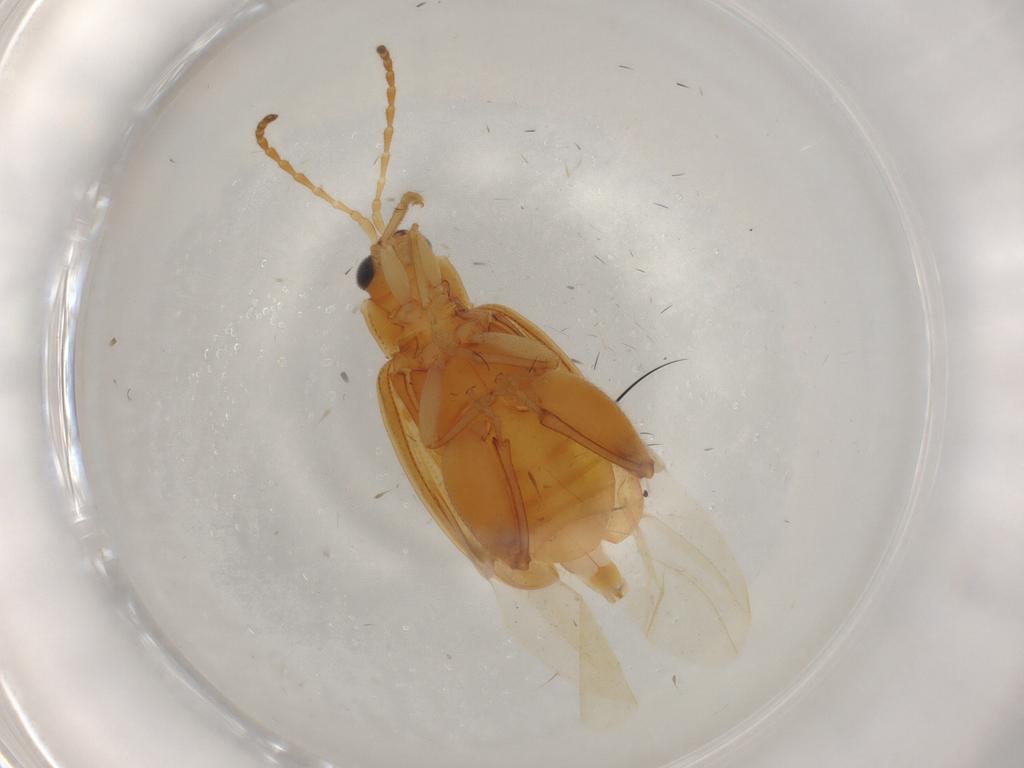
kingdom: Animalia
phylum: Arthropoda
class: Insecta
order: Coleoptera
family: Chrysomelidae
